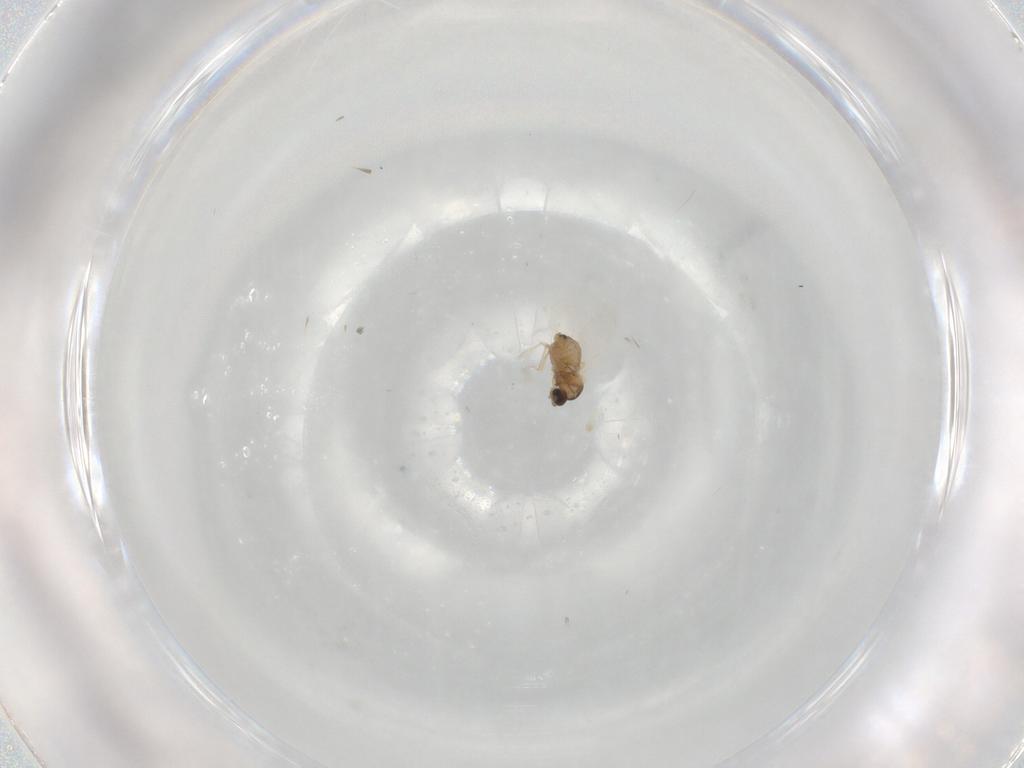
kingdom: Animalia
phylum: Arthropoda
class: Insecta
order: Diptera
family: Cecidomyiidae
